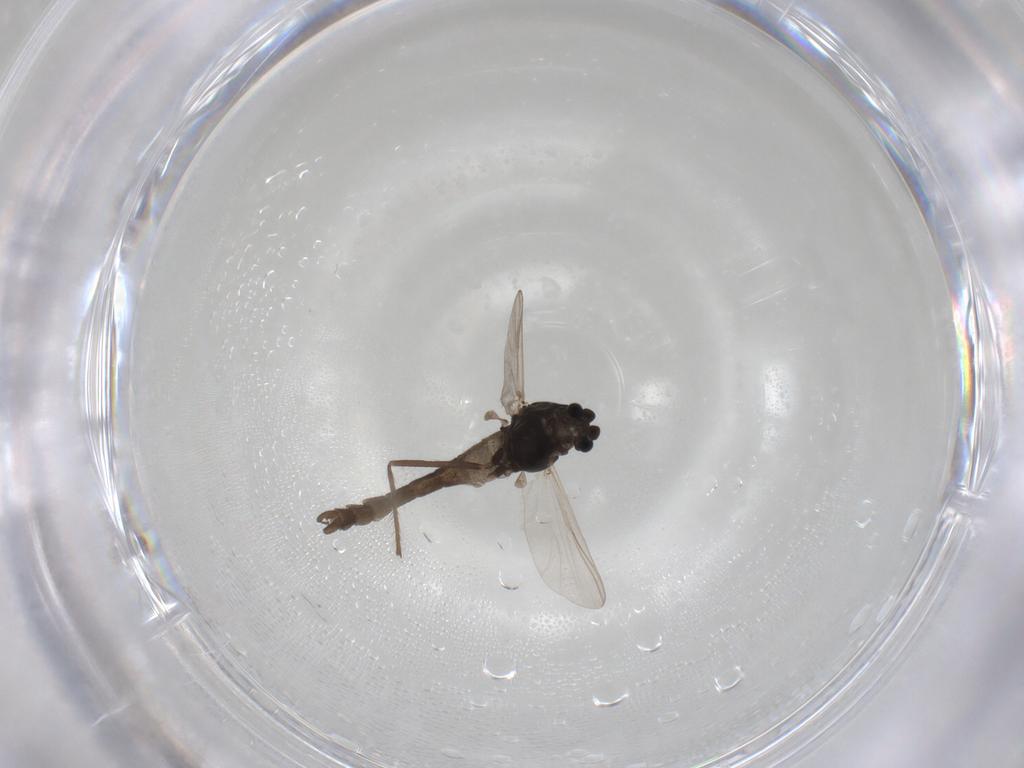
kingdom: Animalia
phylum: Arthropoda
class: Insecta
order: Diptera
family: Chironomidae
